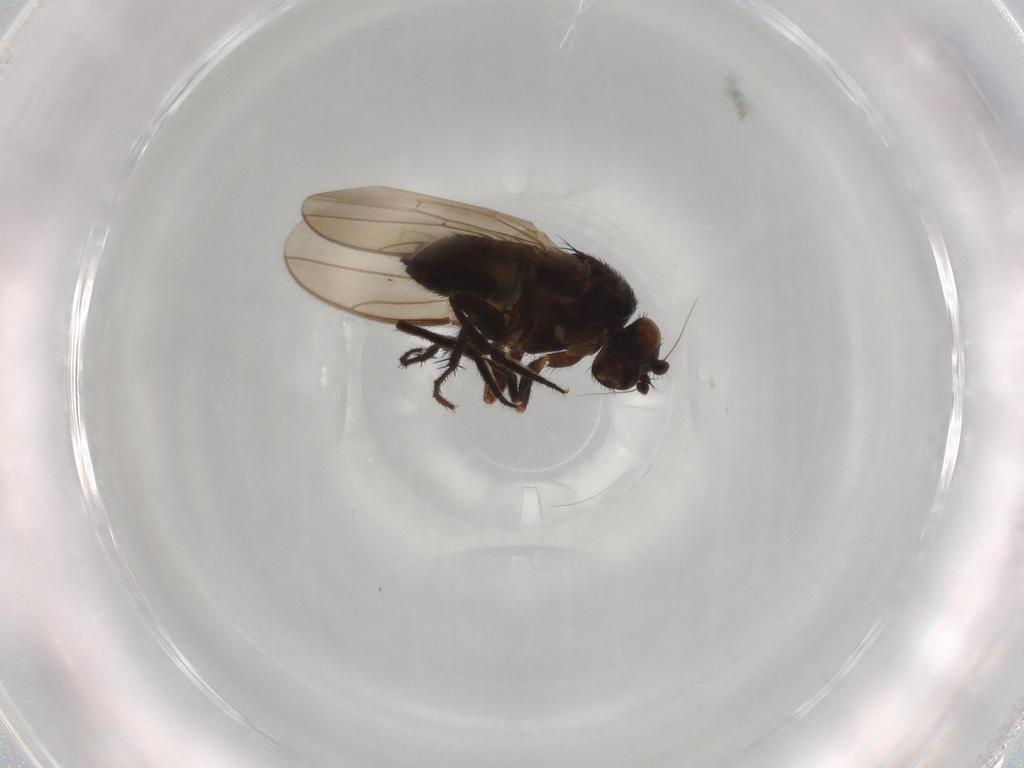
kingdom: Animalia
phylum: Arthropoda
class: Insecta
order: Diptera
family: Sphaeroceridae
